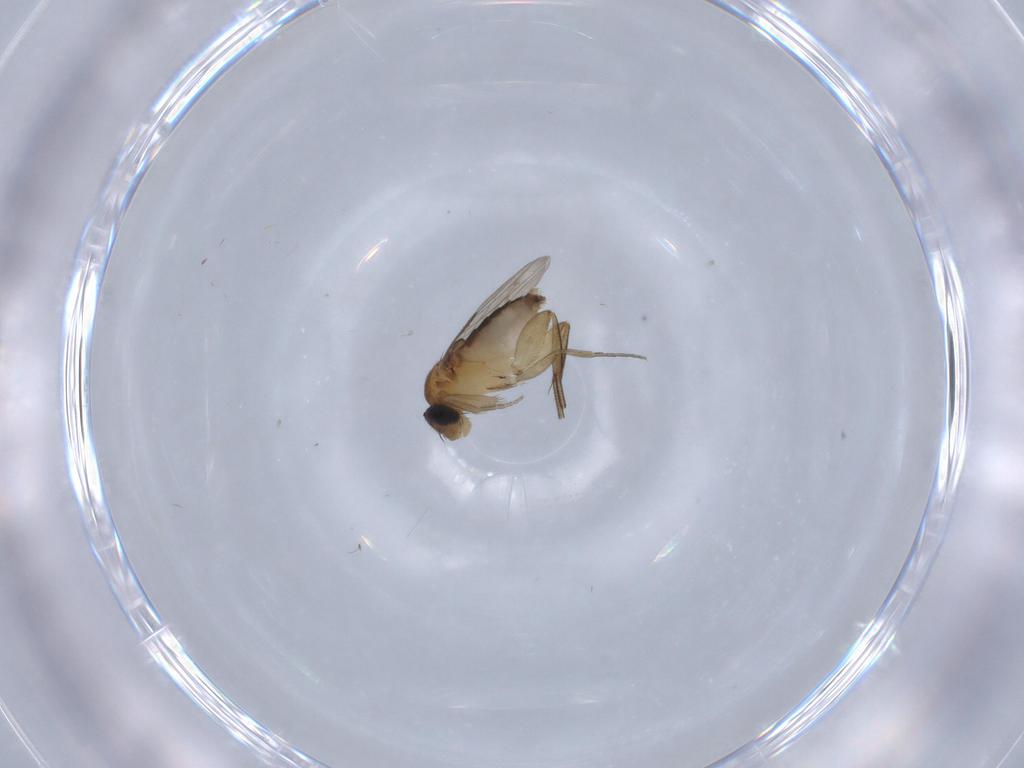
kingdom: Animalia
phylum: Arthropoda
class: Insecta
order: Diptera
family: Phoridae
